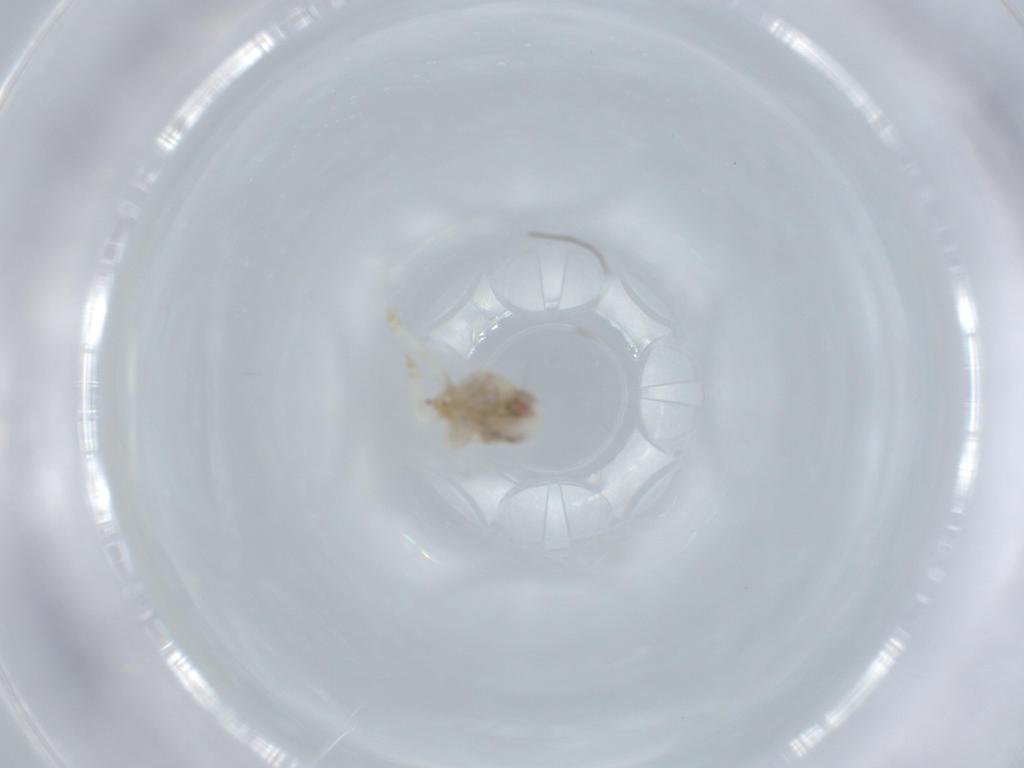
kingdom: Animalia
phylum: Arthropoda
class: Insecta
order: Hemiptera
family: Acanaloniidae
